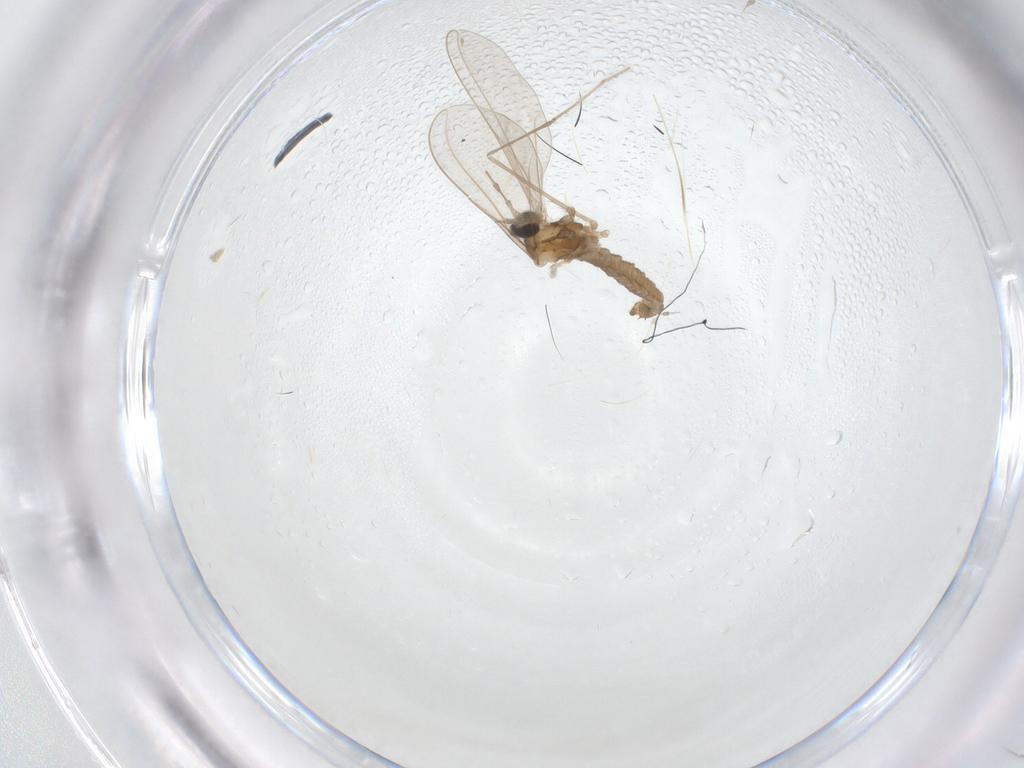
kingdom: Animalia
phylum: Arthropoda
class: Insecta
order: Diptera
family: Cecidomyiidae
